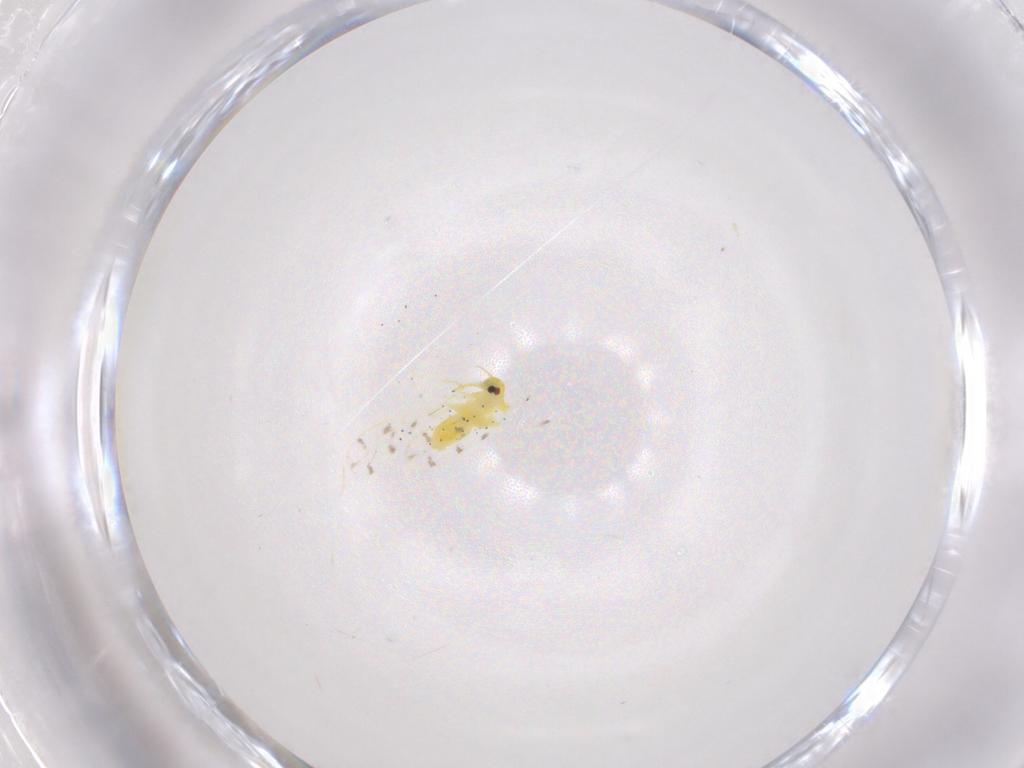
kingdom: Animalia
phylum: Arthropoda
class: Insecta
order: Hemiptera
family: Aleyrodidae
